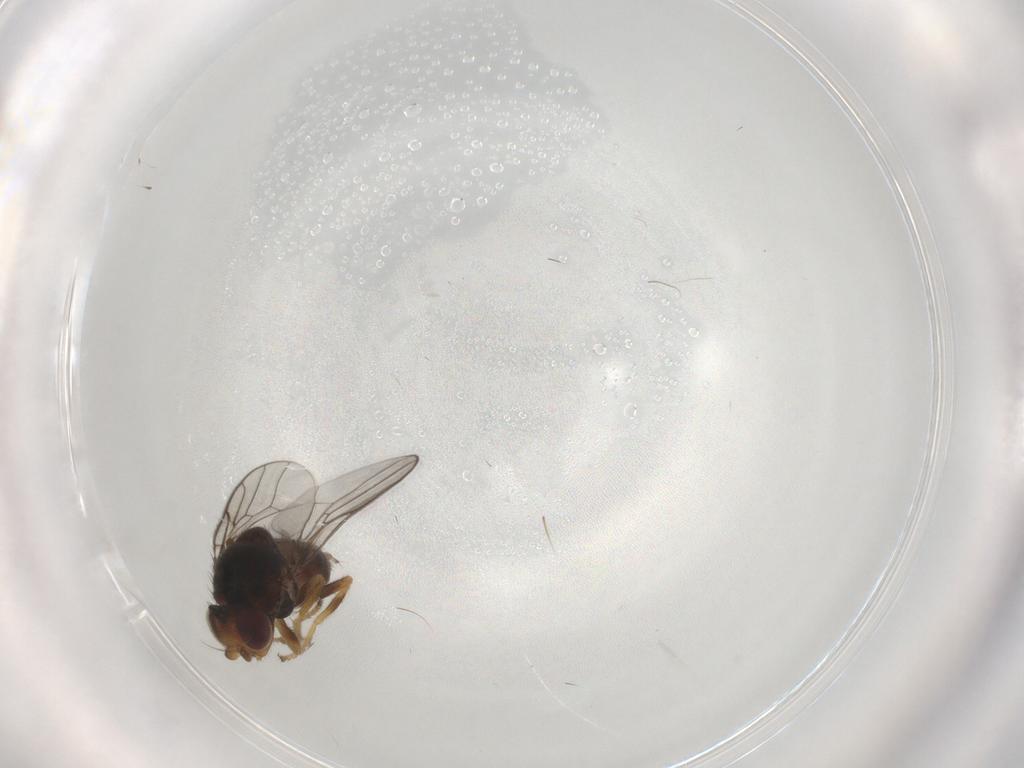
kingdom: Animalia
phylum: Arthropoda
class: Insecta
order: Diptera
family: Chloropidae
